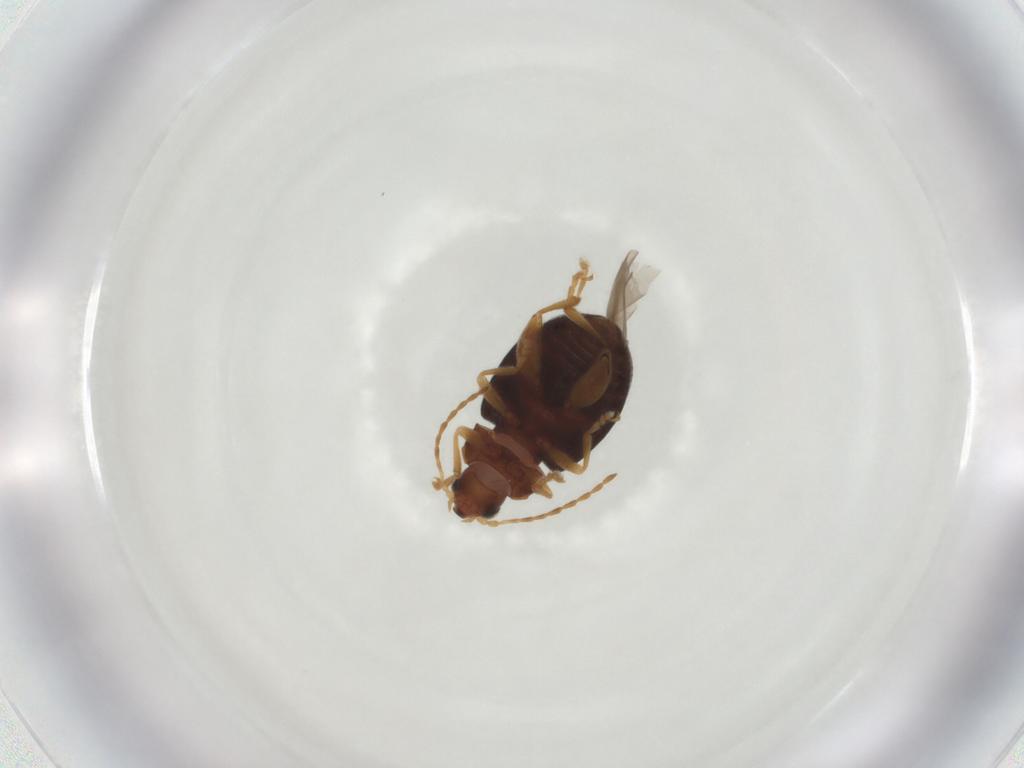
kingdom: Animalia
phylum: Arthropoda
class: Insecta
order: Coleoptera
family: Chrysomelidae
